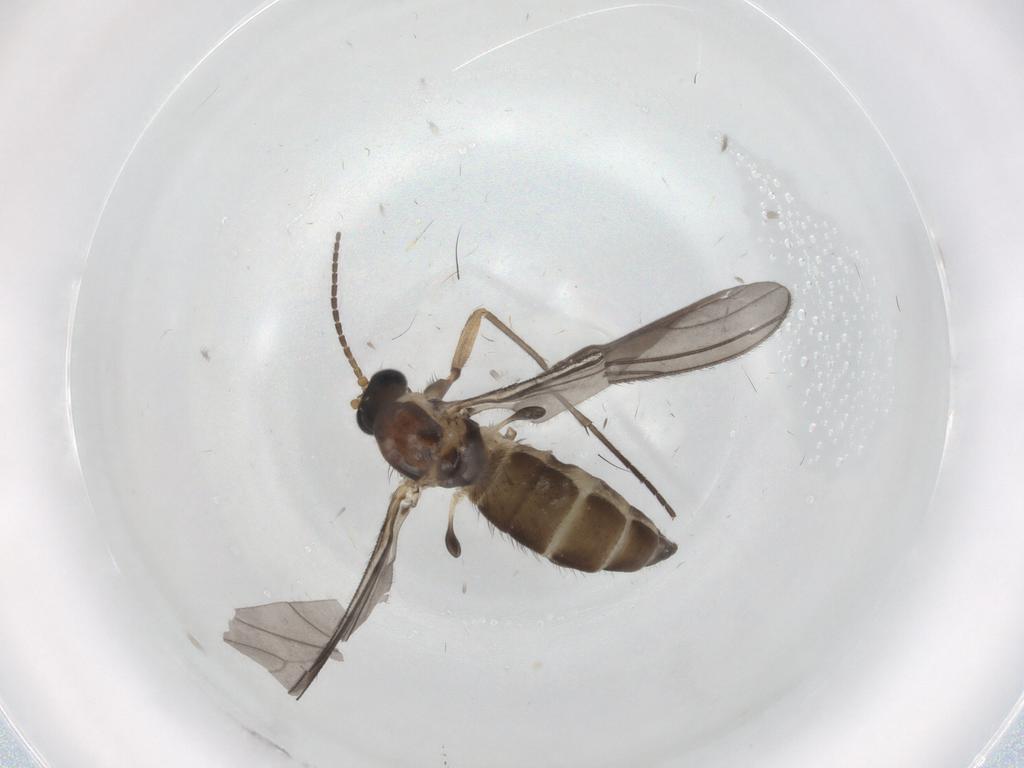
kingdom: Animalia
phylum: Arthropoda
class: Insecta
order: Diptera
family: Sciaridae
